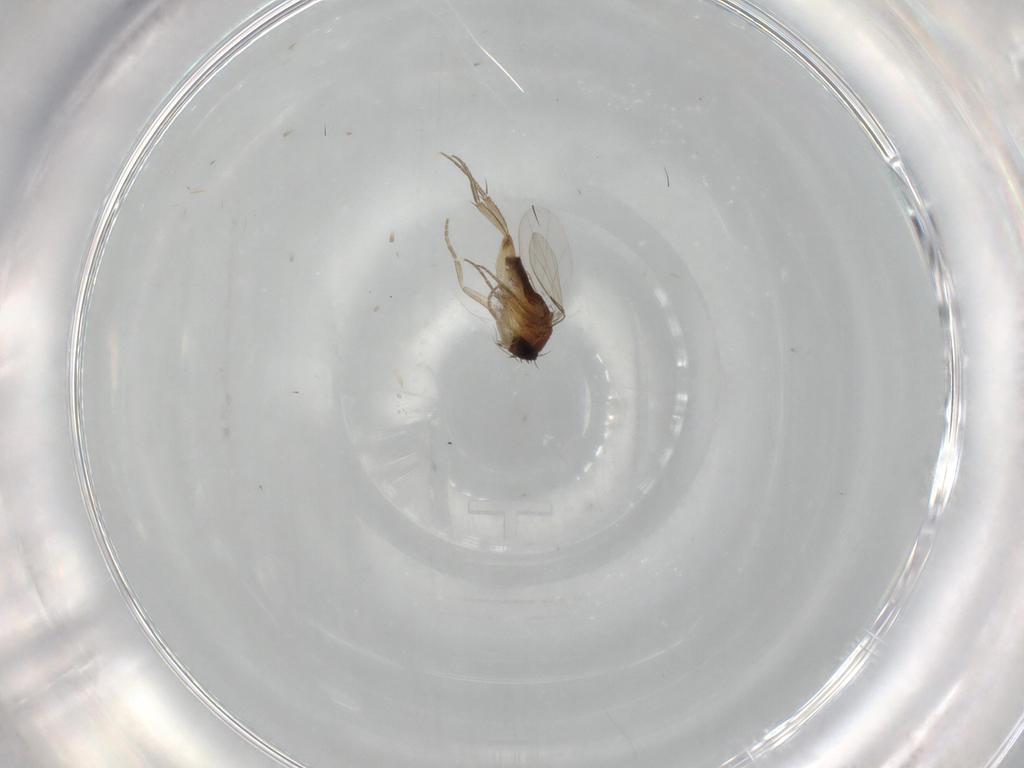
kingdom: Animalia
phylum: Arthropoda
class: Insecta
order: Diptera
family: Phoridae
